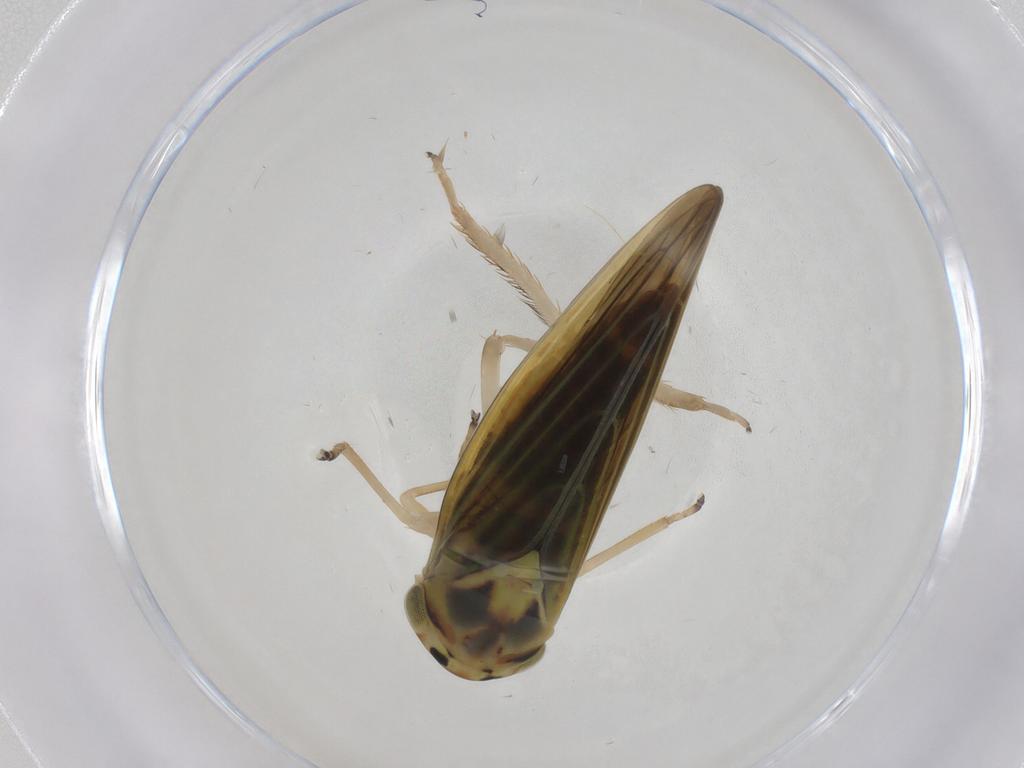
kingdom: Animalia
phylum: Arthropoda
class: Insecta
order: Hemiptera
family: Cicadellidae
